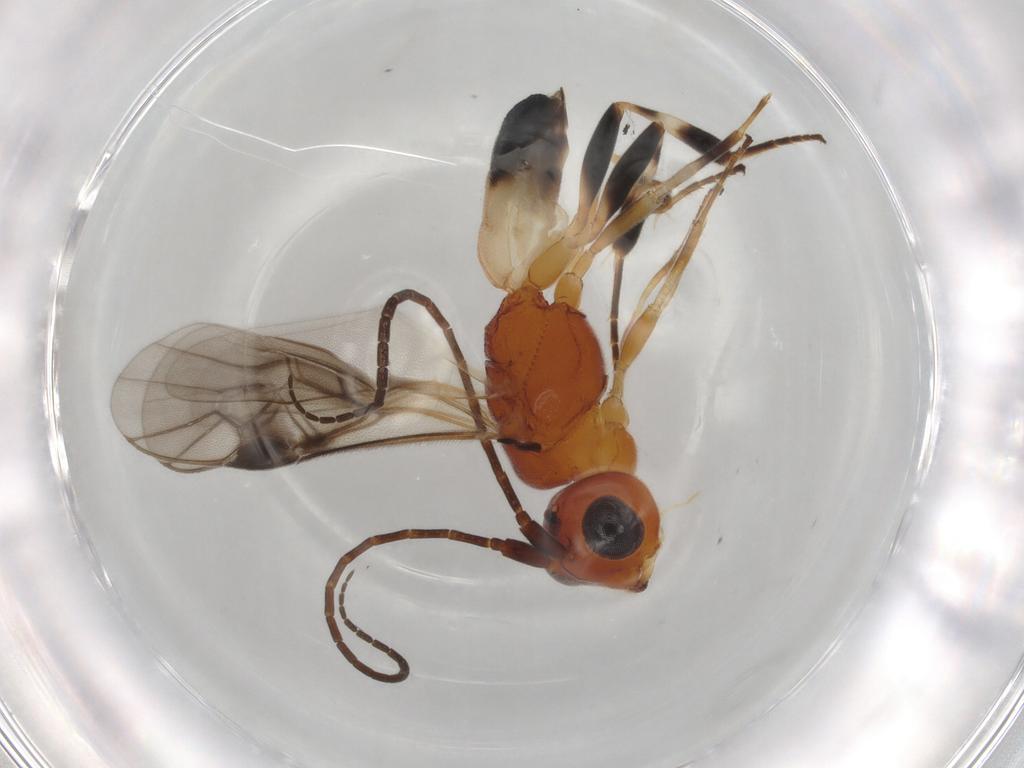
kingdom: Animalia
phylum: Arthropoda
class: Insecta
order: Hymenoptera
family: Braconidae
